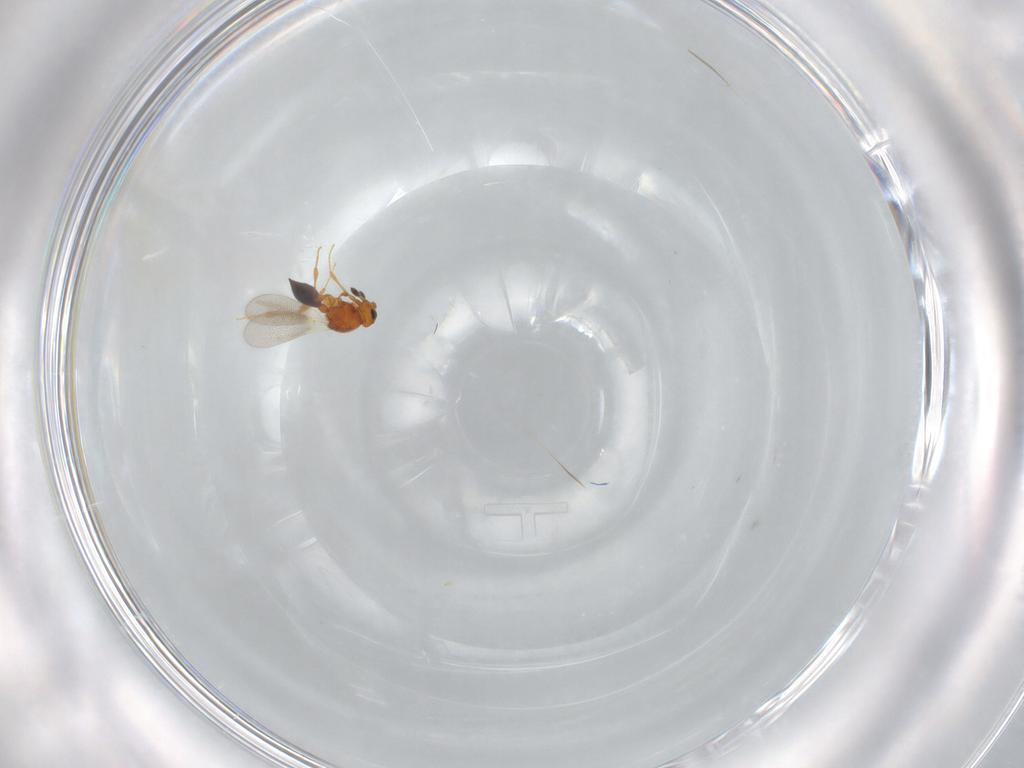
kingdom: Animalia
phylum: Arthropoda
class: Insecta
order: Hymenoptera
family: Platygastridae
